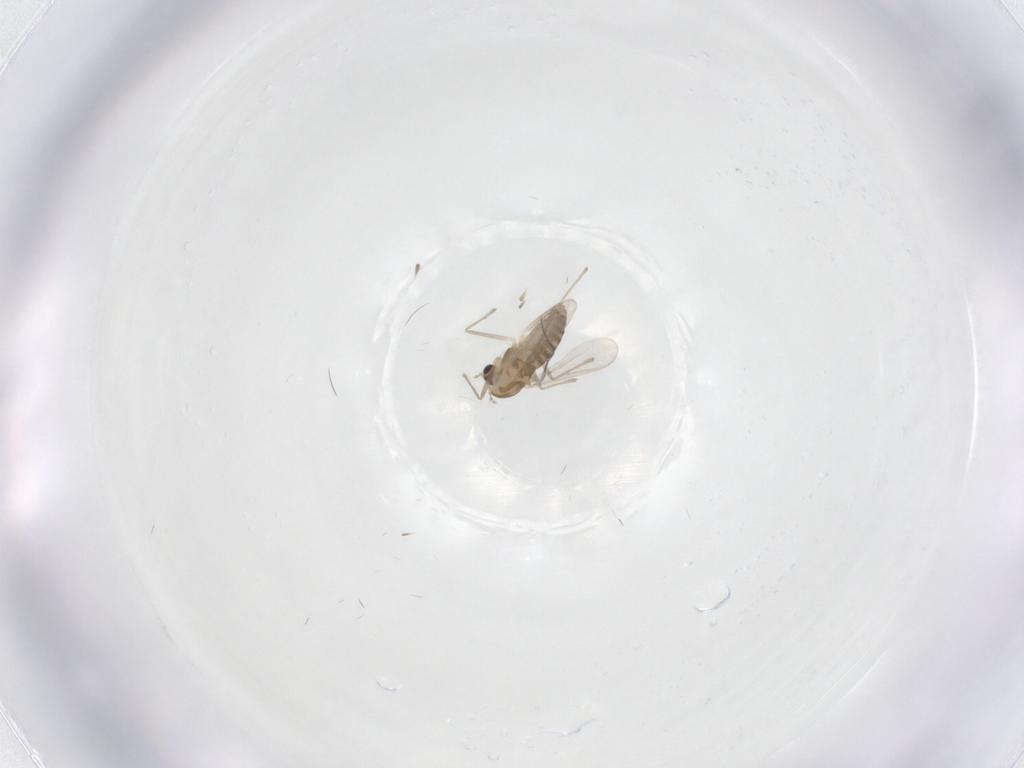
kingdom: Animalia
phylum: Arthropoda
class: Insecta
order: Diptera
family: Chironomidae
